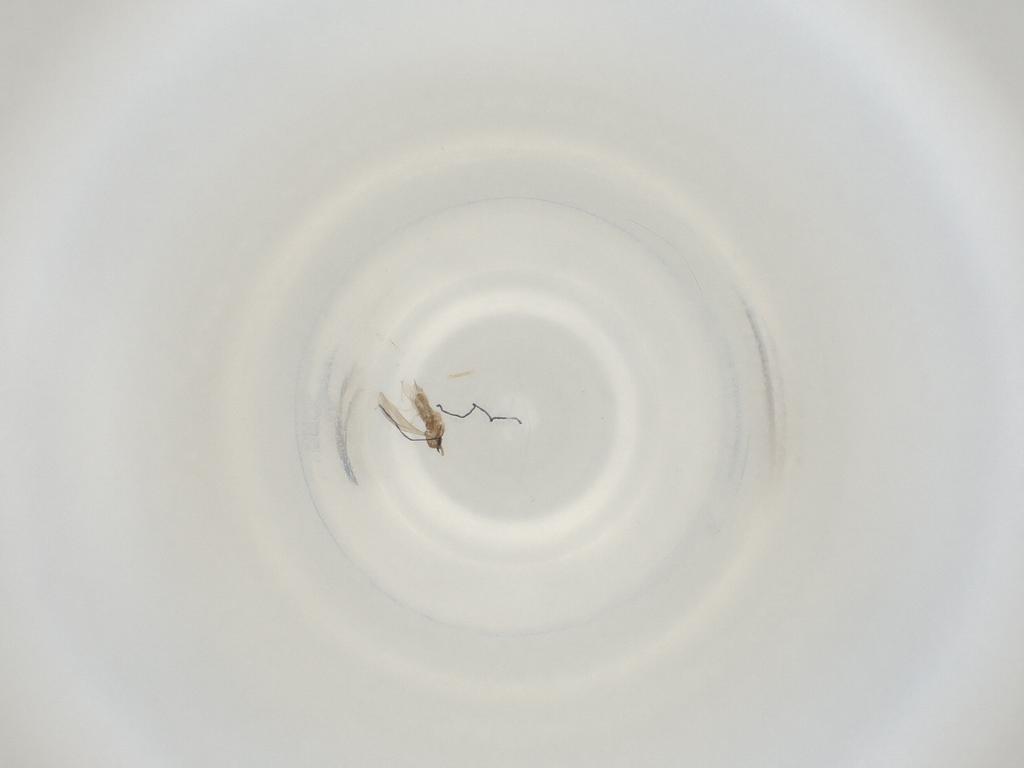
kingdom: Animalia
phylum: Arthropoda
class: Insecta
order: Diptera
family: Cecidomyiidae
